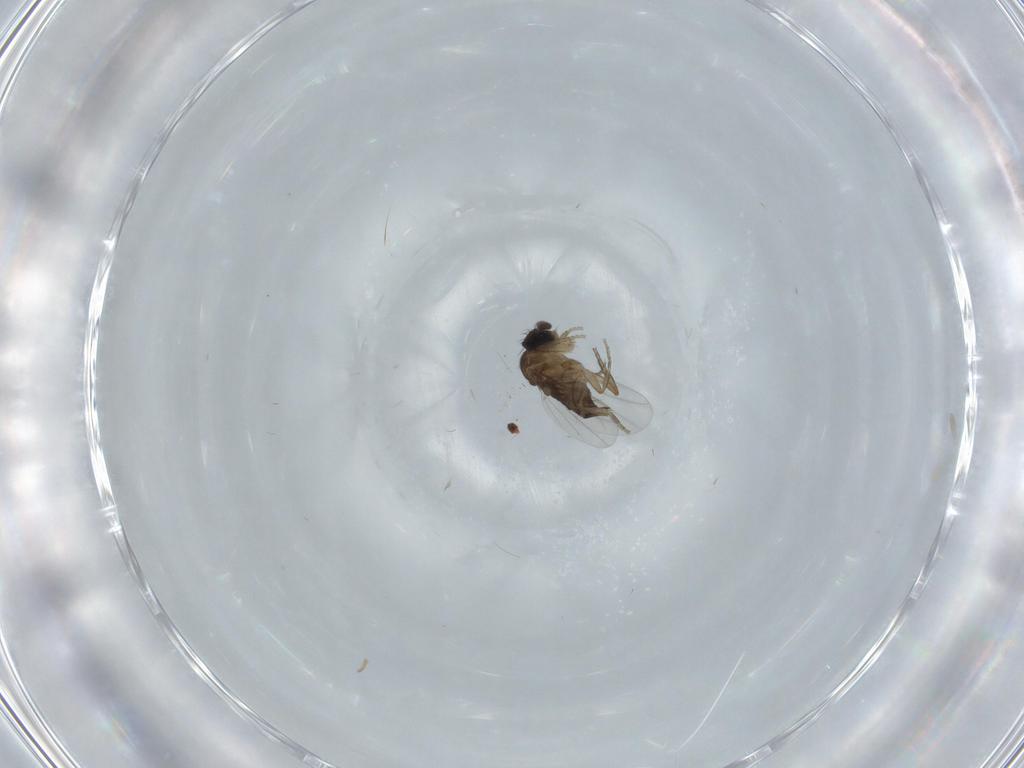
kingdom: Animalia
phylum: Arthropoda
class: Insecta
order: Diptera
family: Phoridae
